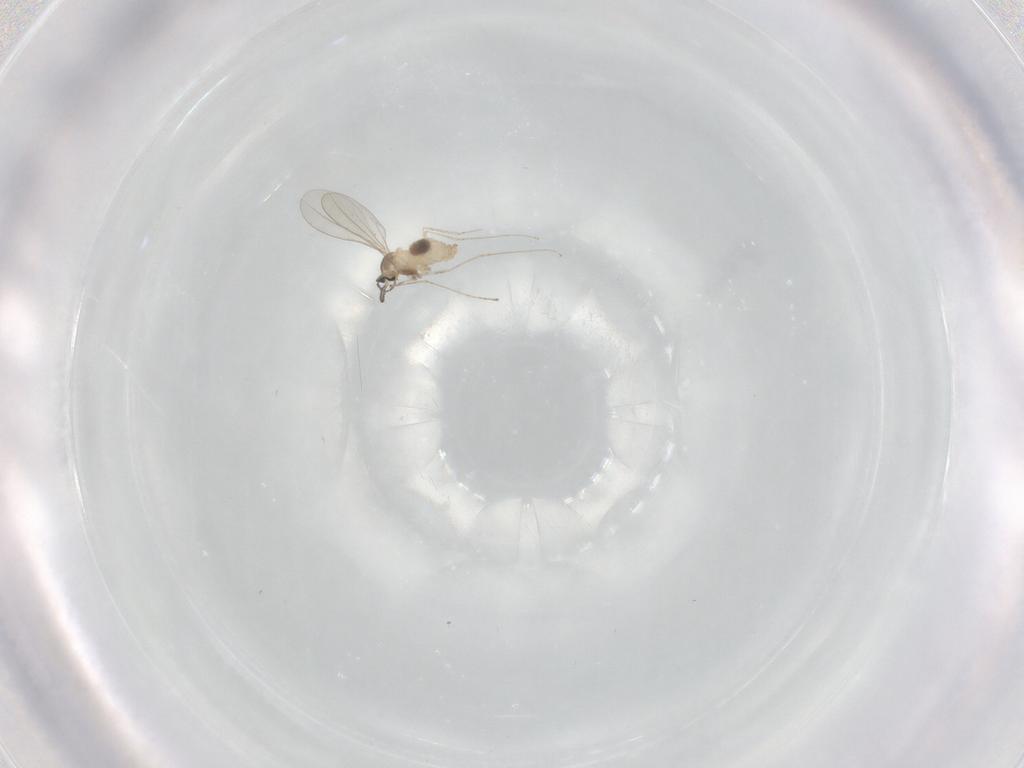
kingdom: Animalia
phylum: Arthropoda
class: Insecta
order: Diptera
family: Cecidomyiidae
